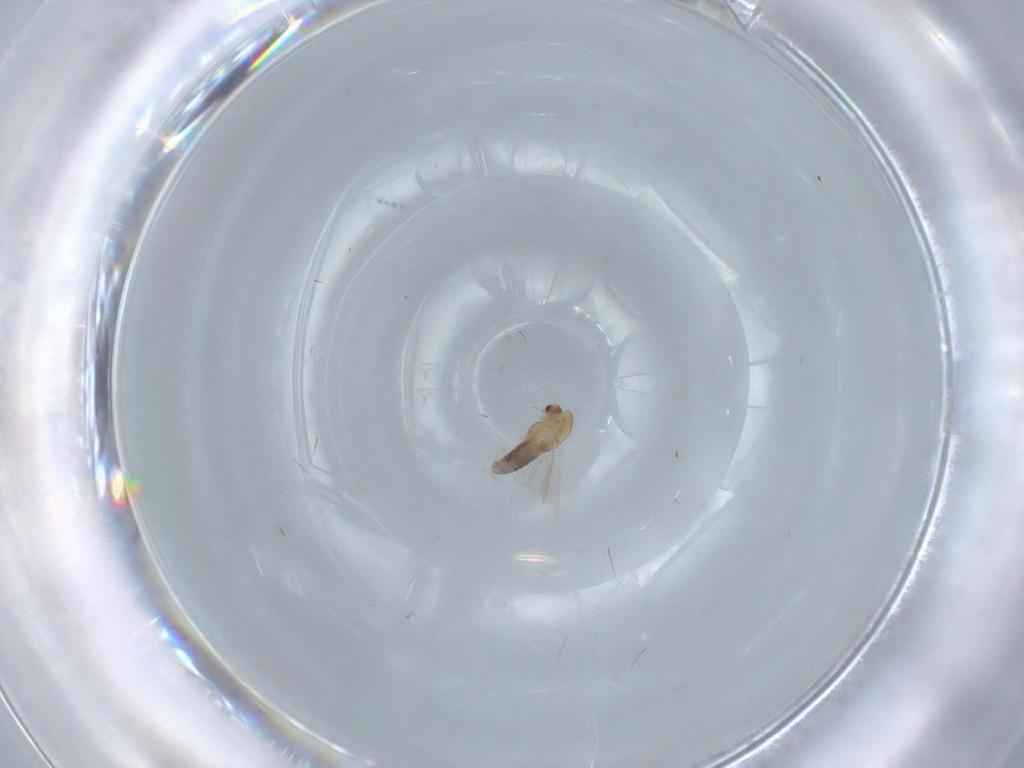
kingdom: Animalia
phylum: Arthropoda
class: Insecta
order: Diptera
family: Chironomidae
